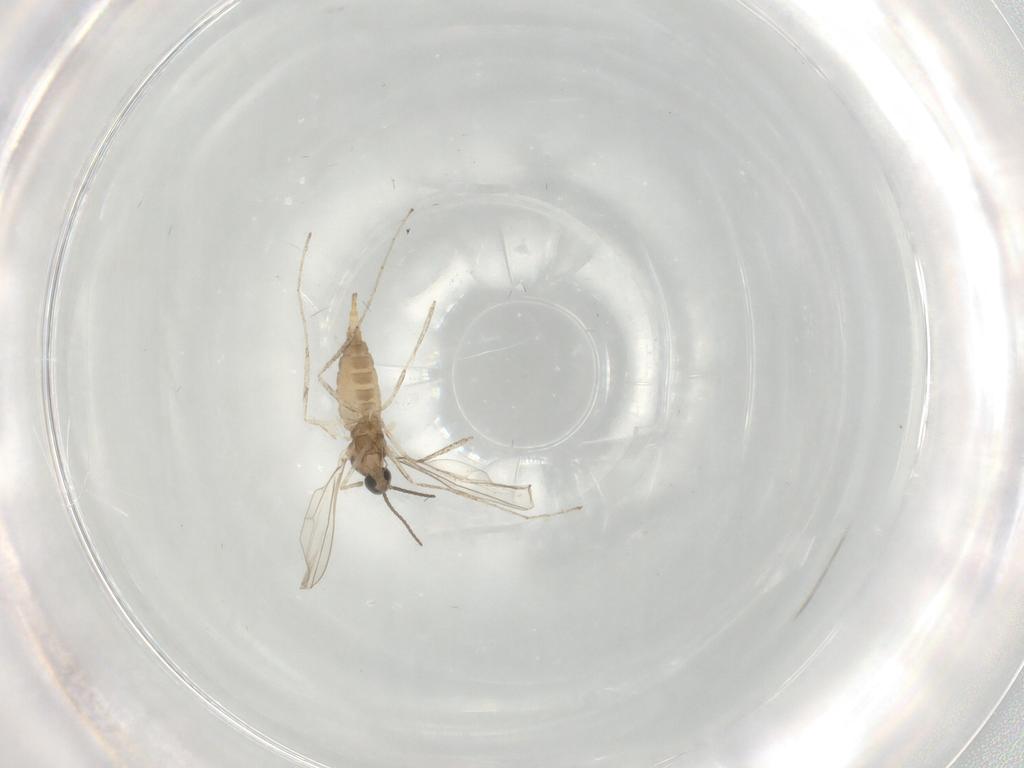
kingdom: Animalia
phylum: Arthropoda
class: Insecta
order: Diptera
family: Cecidomyiidae
